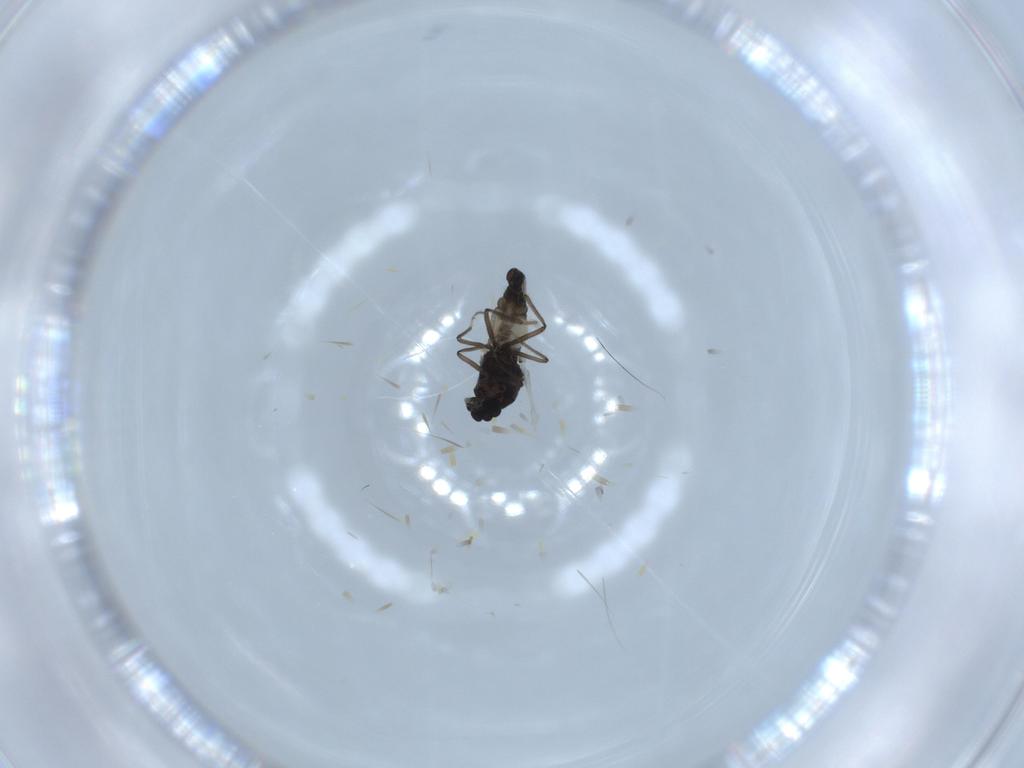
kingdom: Animalia
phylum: Arthropoda
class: Insecta
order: Diptera
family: Ceratopogonidae
